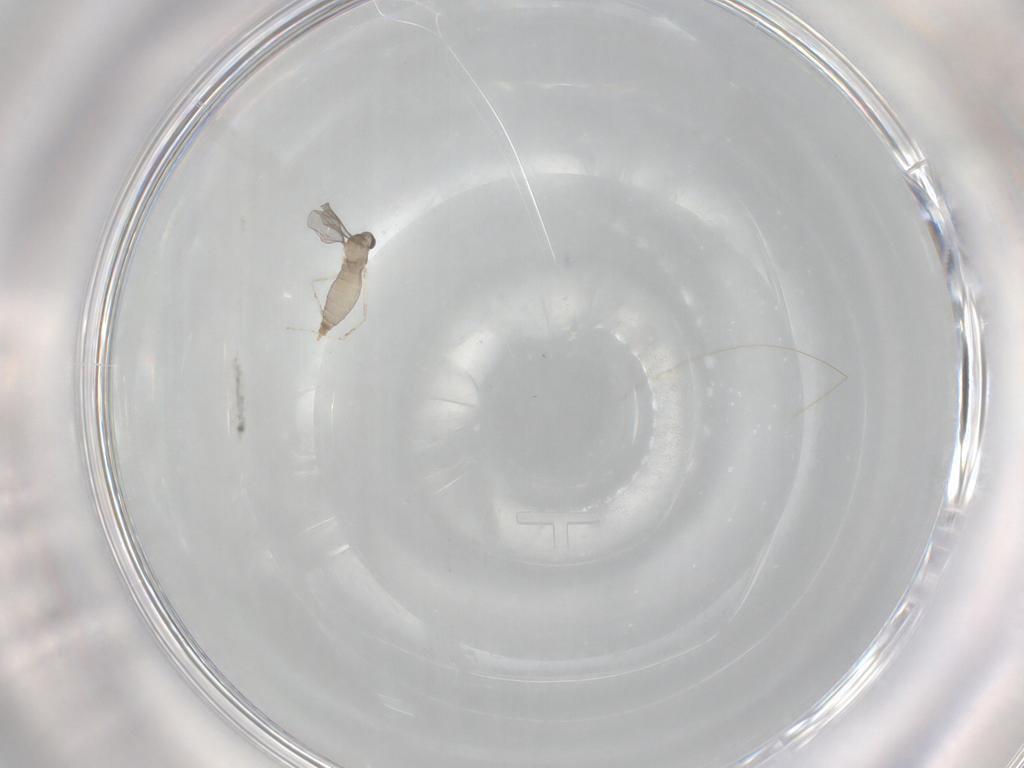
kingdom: Animalia
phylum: Arthropoda
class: Insecta
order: Diptera
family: Cecidomyiidae
